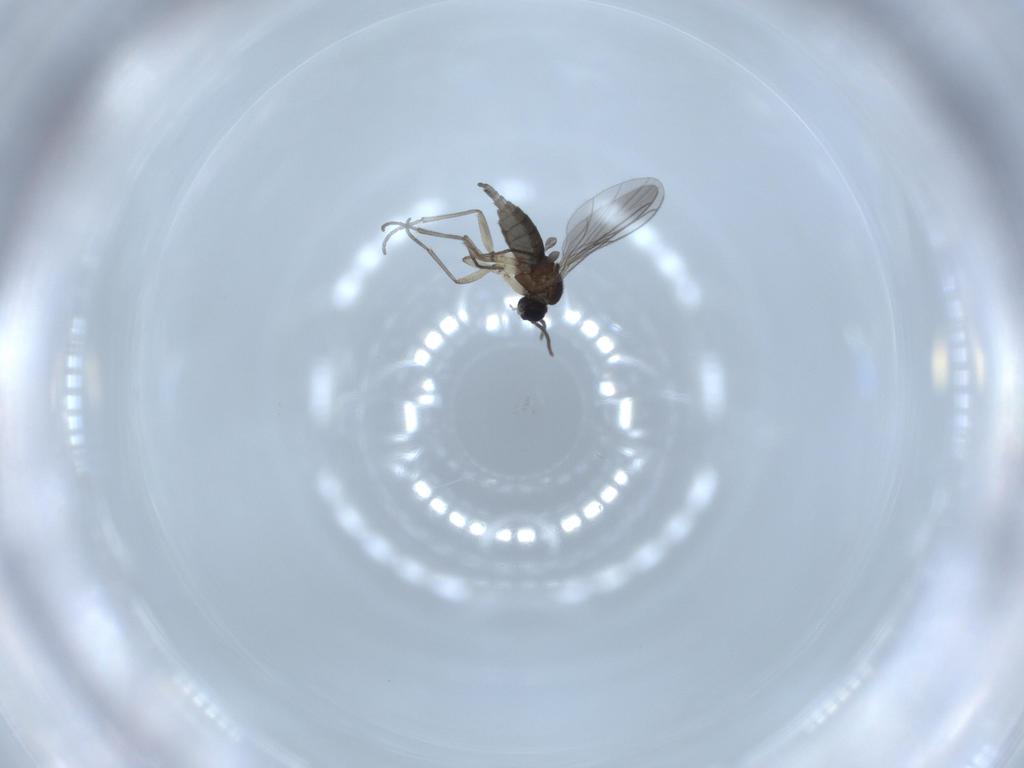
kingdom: Animalia
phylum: Arthropoda
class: Insecta
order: Diptera
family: Sciaridae
